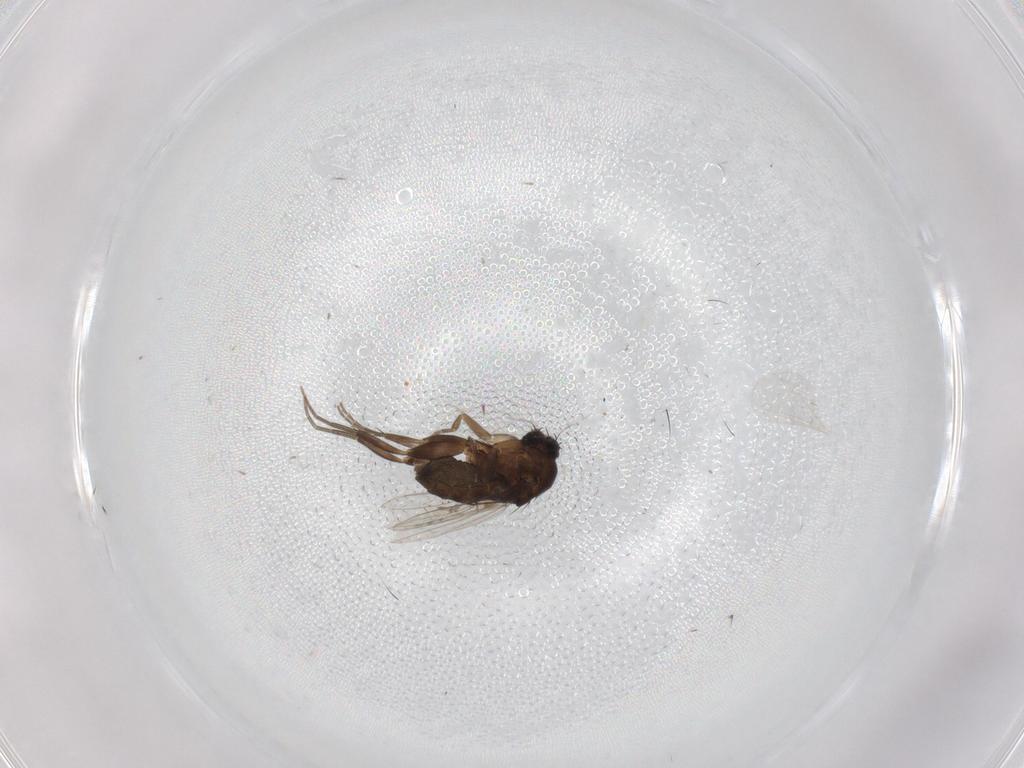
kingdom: Animalia
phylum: Arthropoda
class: Insecta
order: Diptera
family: Phoridae
